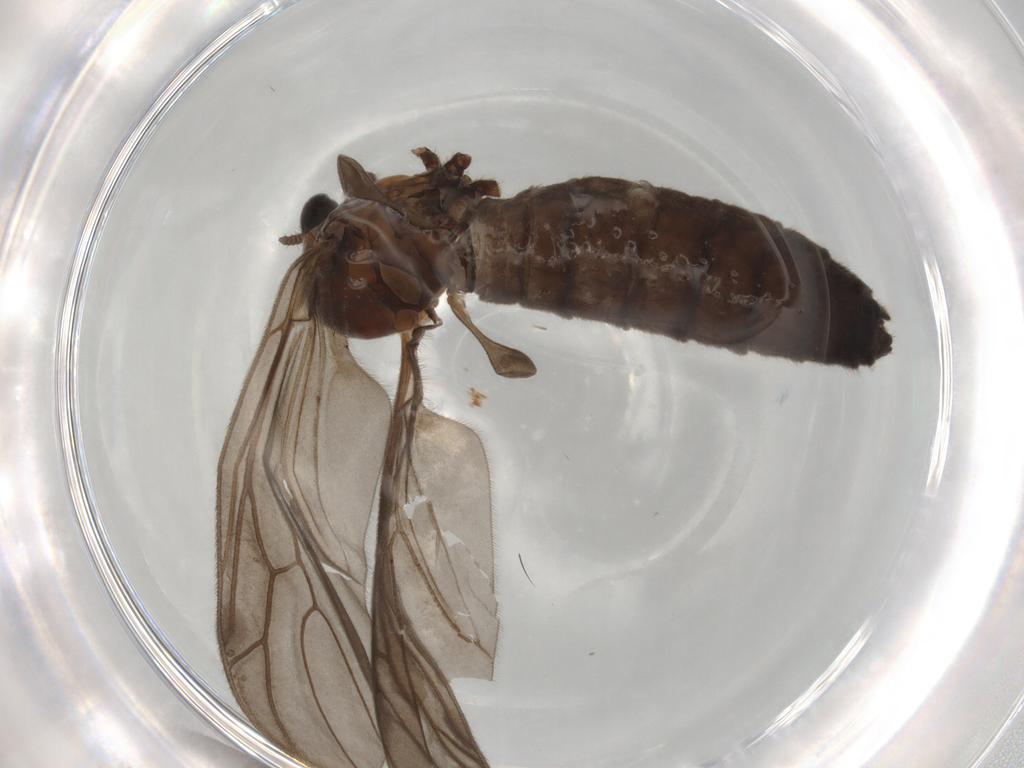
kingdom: Animalia
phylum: Arthropoda
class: Insecta
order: Diptera
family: Bibionidae
